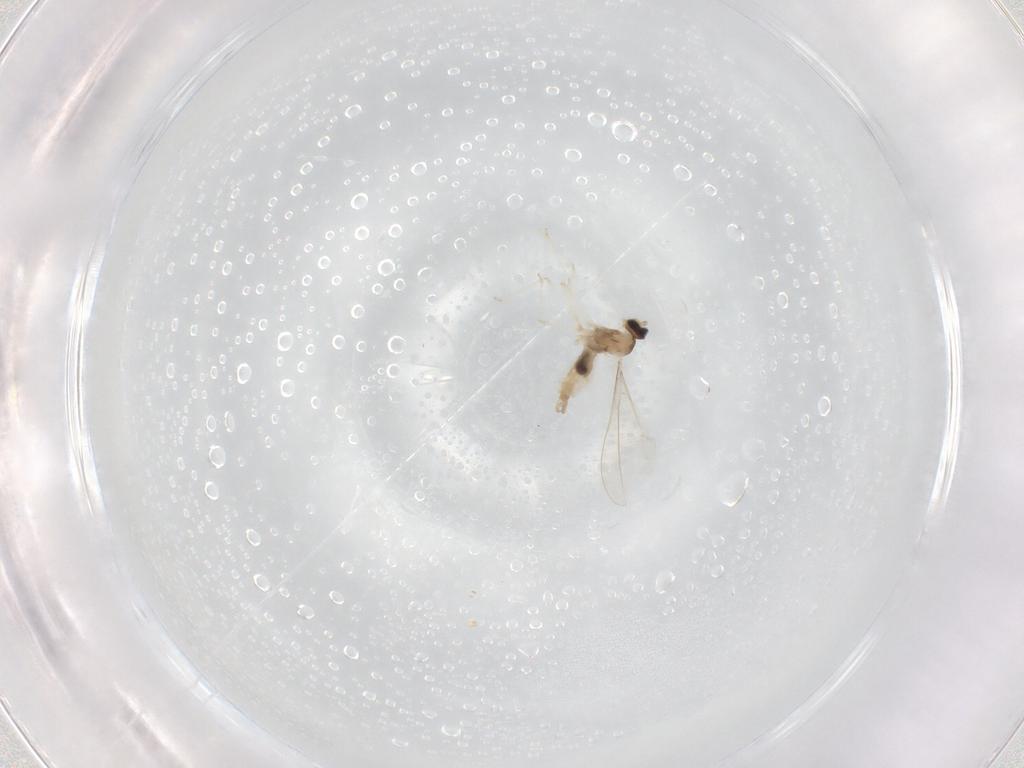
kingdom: Animalia
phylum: Arthropoda
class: Insecta
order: Diptera
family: Cecidomyiidae
